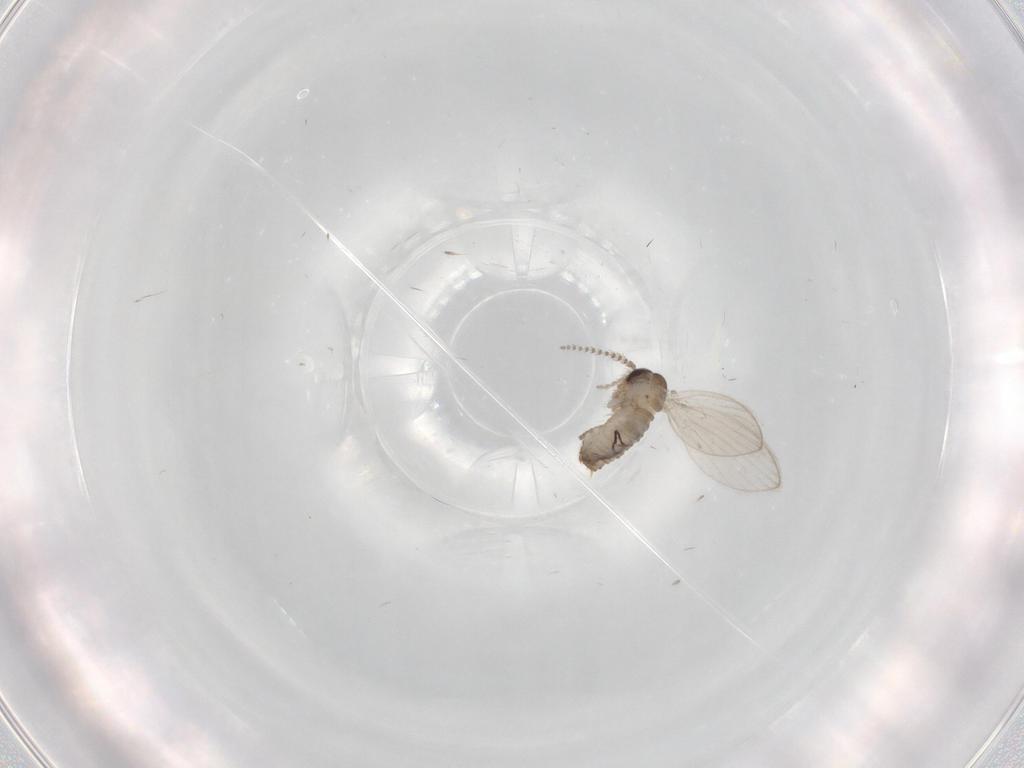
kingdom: Animalia
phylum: Arthropoda
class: Insecta
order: Diptera
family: Psychodidae
